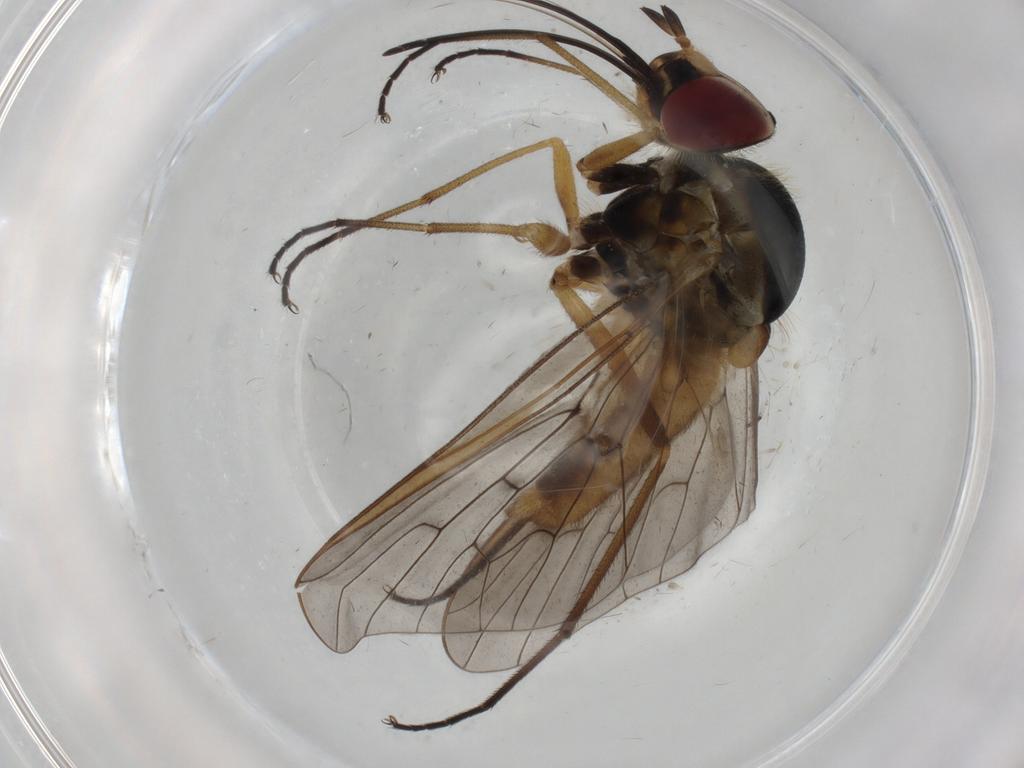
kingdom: Animalia
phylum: Arthropoda
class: Insecta
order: Diptera
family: Bombyliidae
